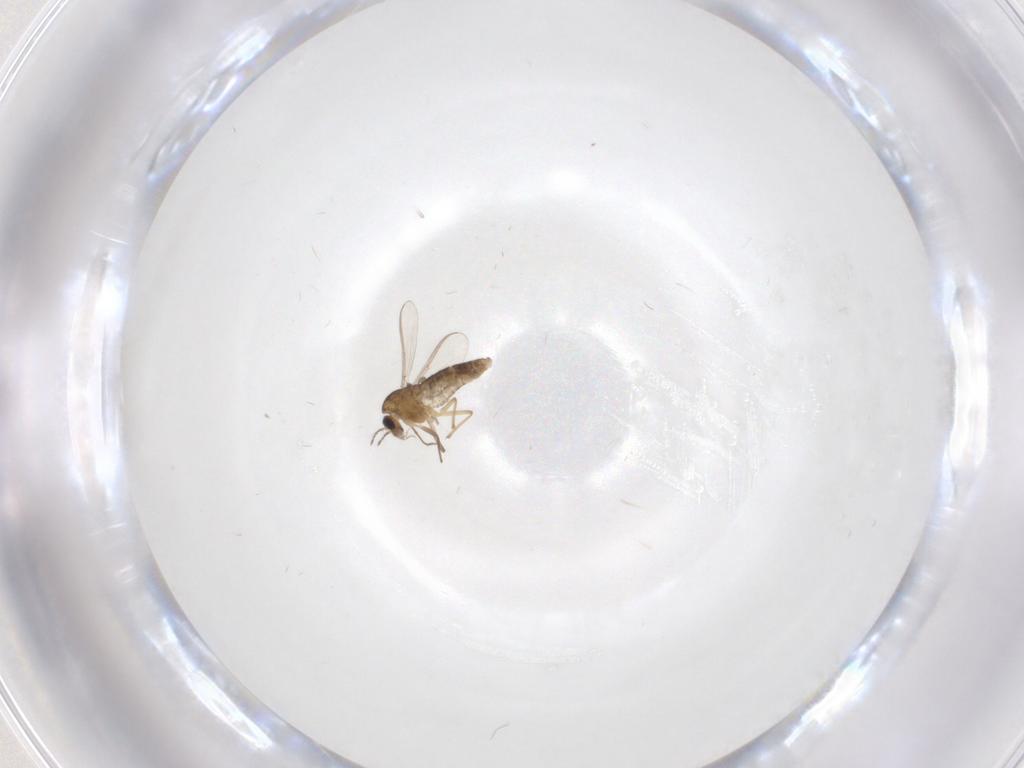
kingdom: Animalia
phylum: Arthropoda
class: Insecta
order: Diptera
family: Chironomidae
